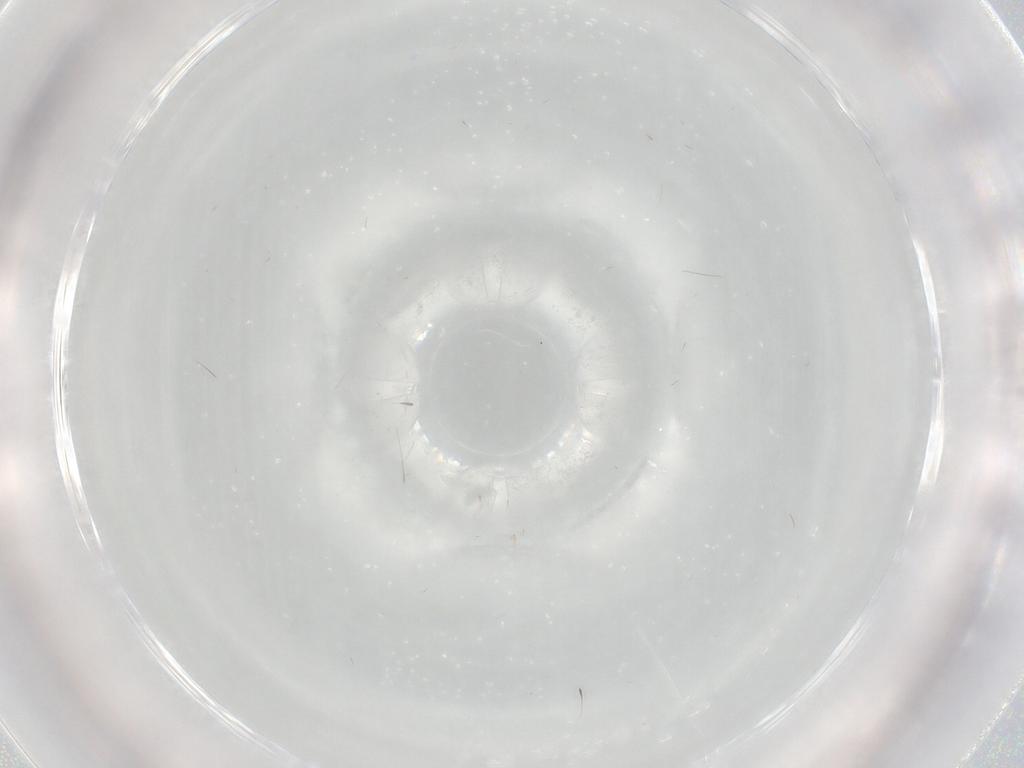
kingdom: Animalia
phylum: Arthropoda
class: Insecta
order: Diptera
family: Cecidomyiidae
